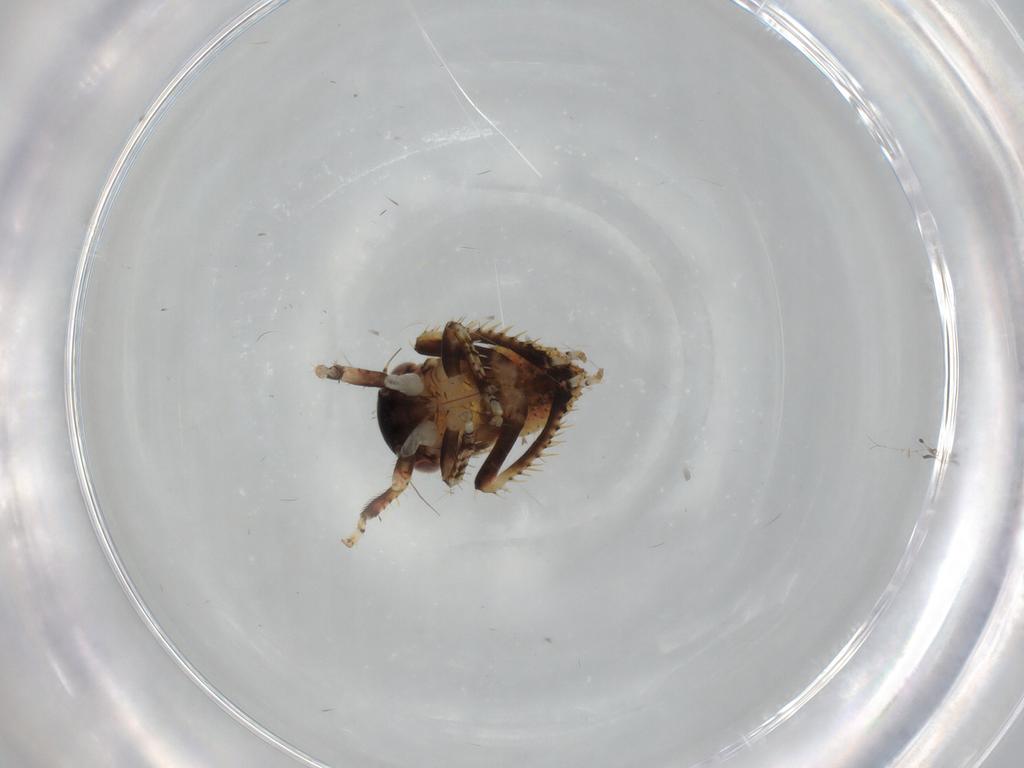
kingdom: Animalia
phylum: Arthropoda
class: Insecta
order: Hemiptera
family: Cicadellidae
